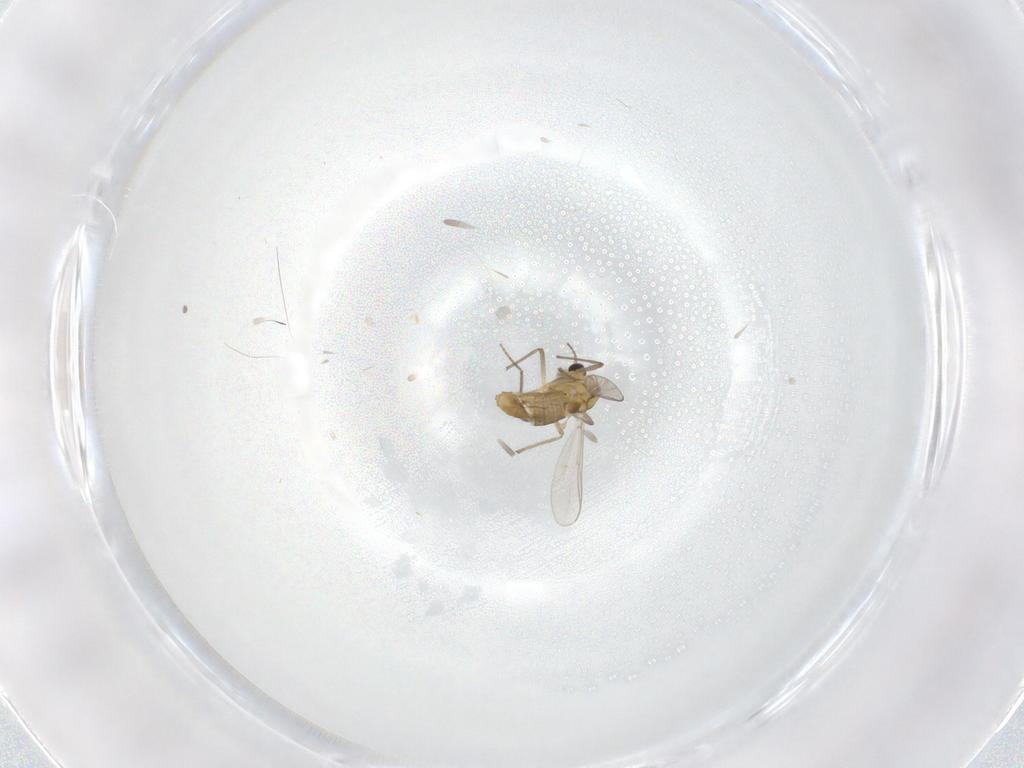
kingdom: Animalia
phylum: Arthropoda
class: Insecta
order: Diptera
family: Chironomidae
